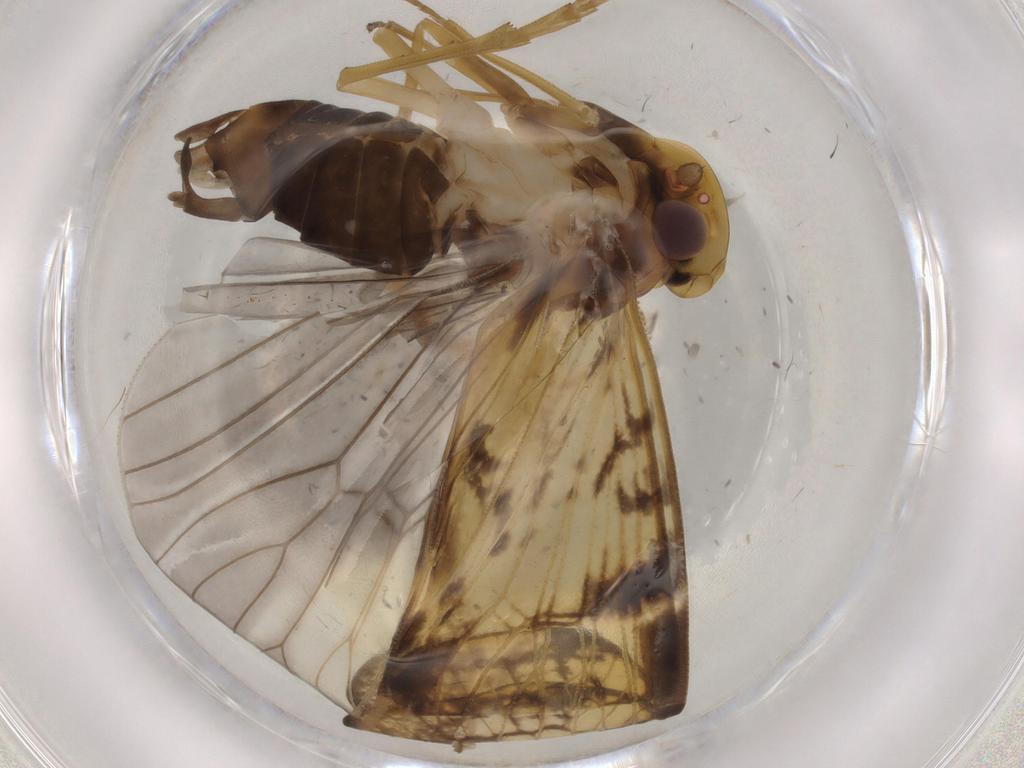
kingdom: Animalia
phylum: Arthropoda
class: Insecta
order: Hemiptera
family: Cixiidae
